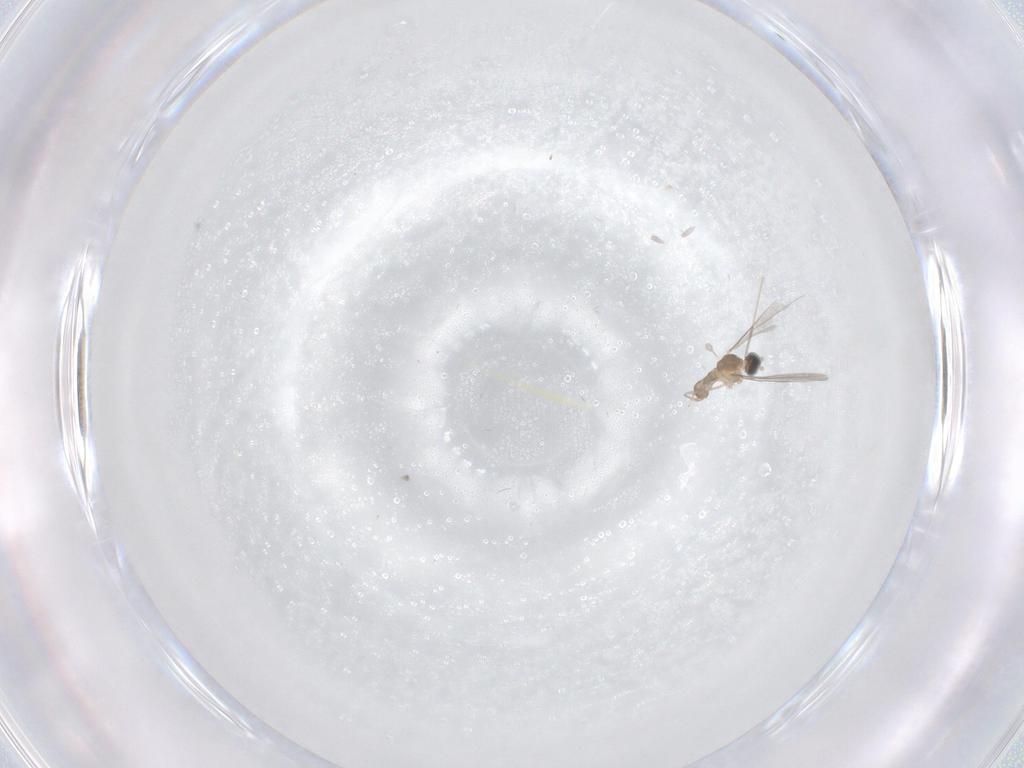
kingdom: Animalia
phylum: Arthropoda
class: Insecta
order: Diptera
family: Cecidomyiidae
